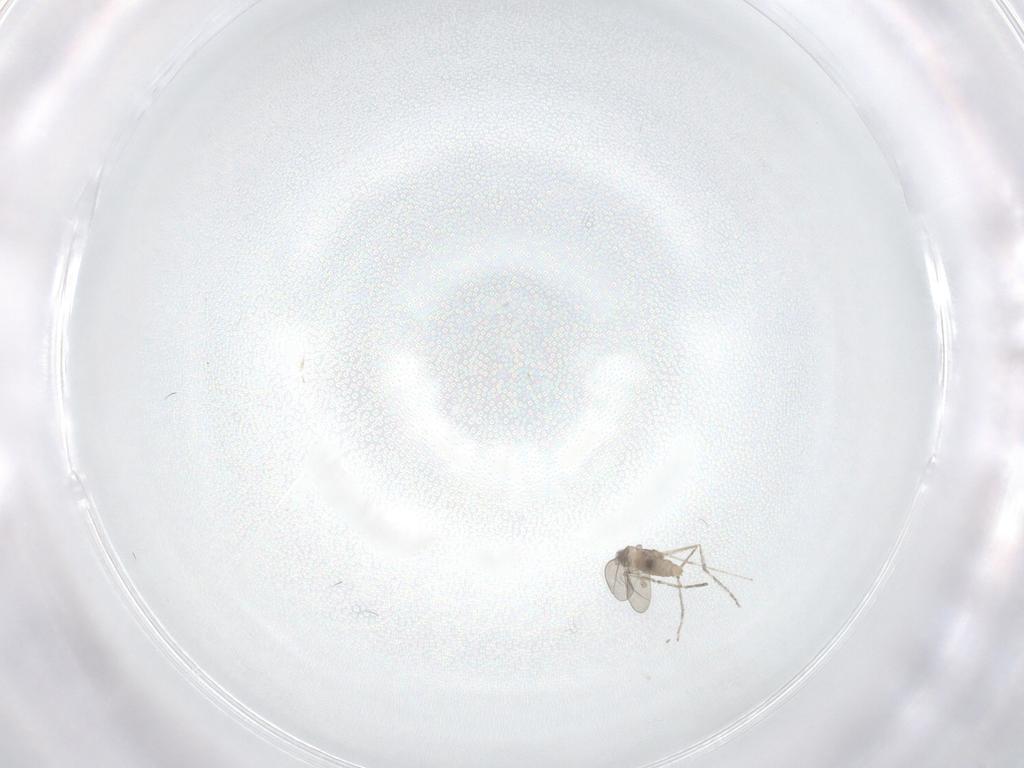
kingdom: Animalia
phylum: Arthropoda
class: Insecta
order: Diptera
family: Cecidomyiidae
